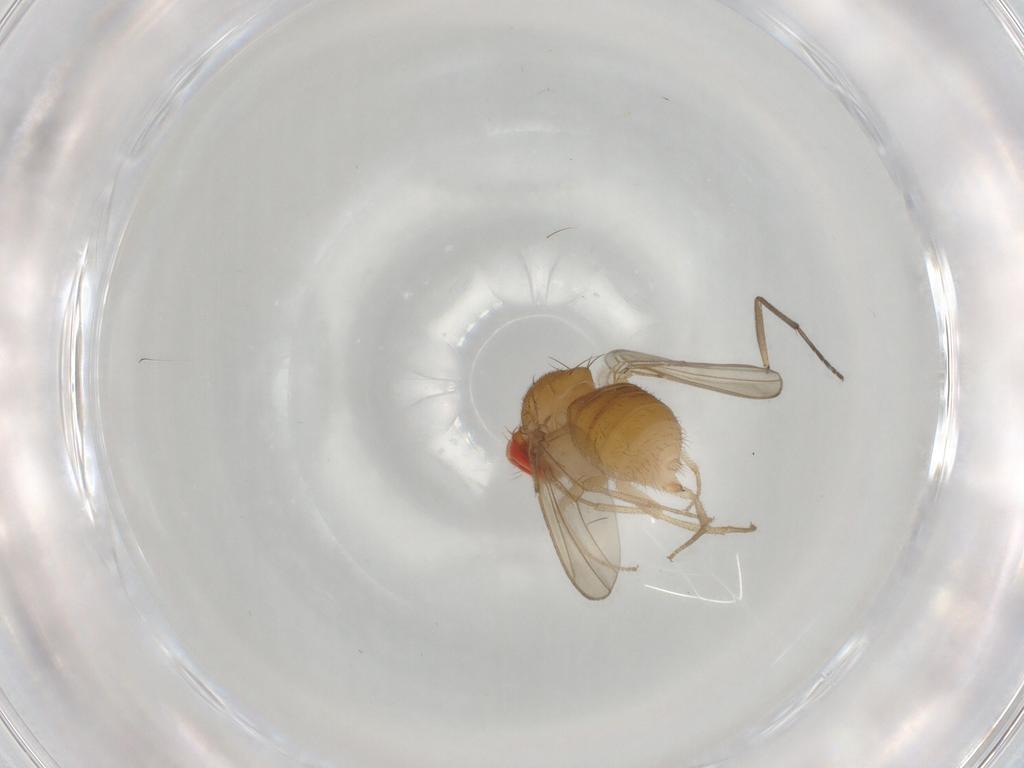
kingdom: Animalia
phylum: Arthropoda
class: Insecta
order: Diptera
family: Drosophilidae
